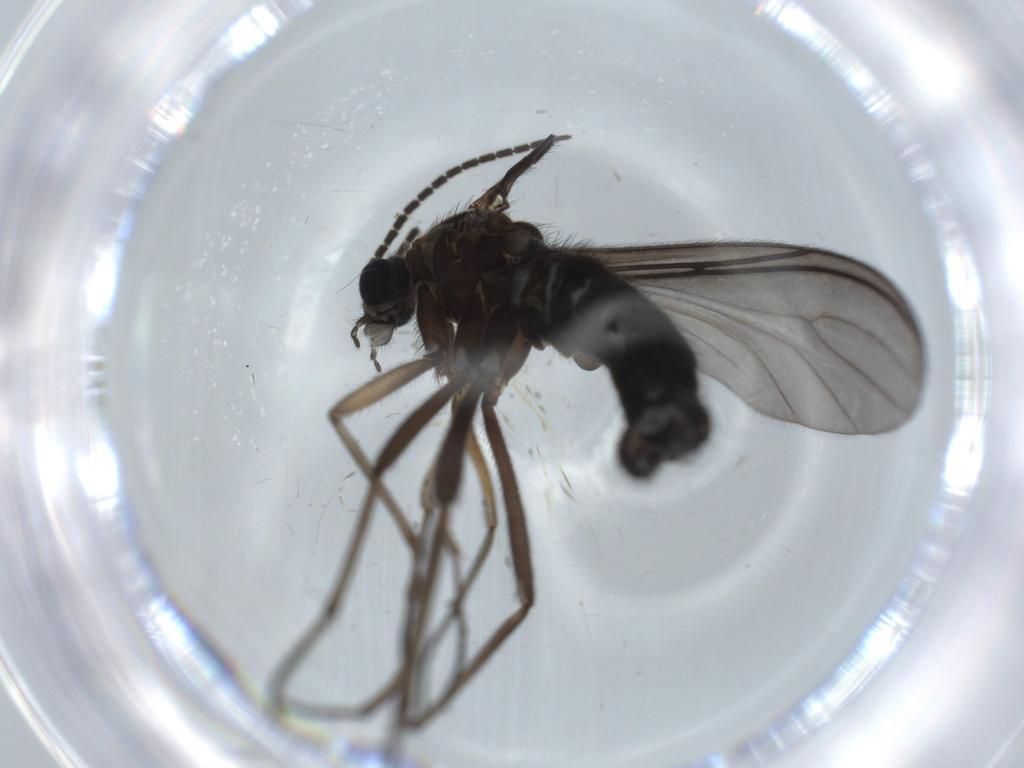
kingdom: Animalia
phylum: Arthropoda
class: Insecta
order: Diptera
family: Sciaridae
